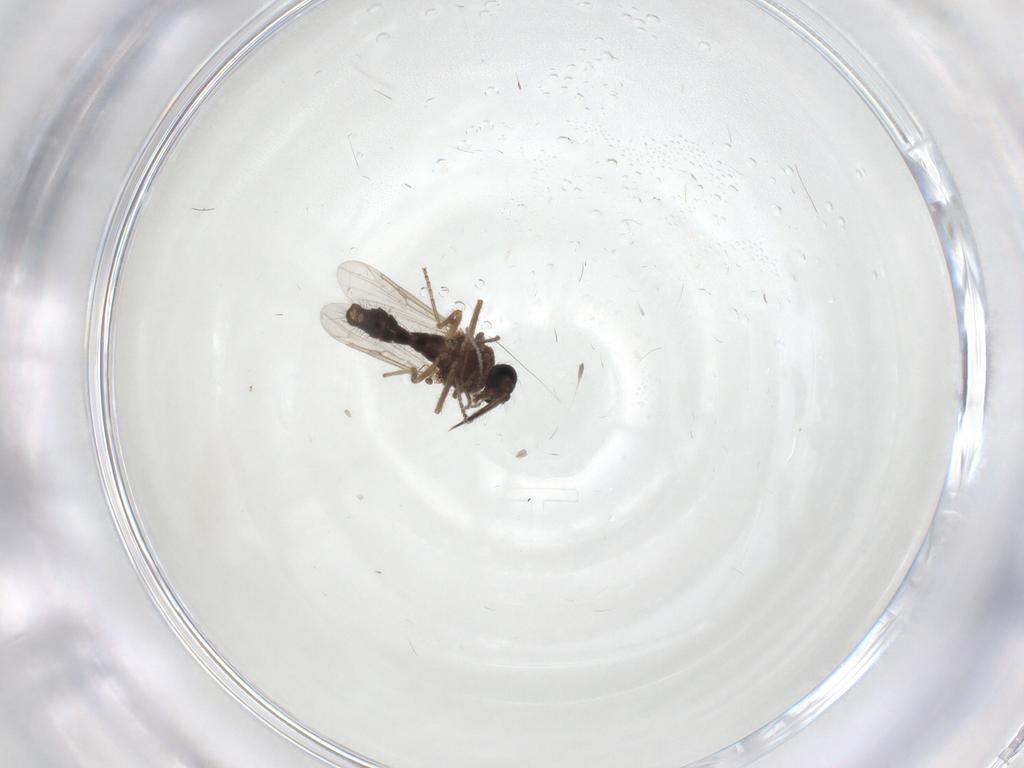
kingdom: Animalia
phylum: Arthropoda
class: Insecta
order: Diptera
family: Ceratopogonidae
